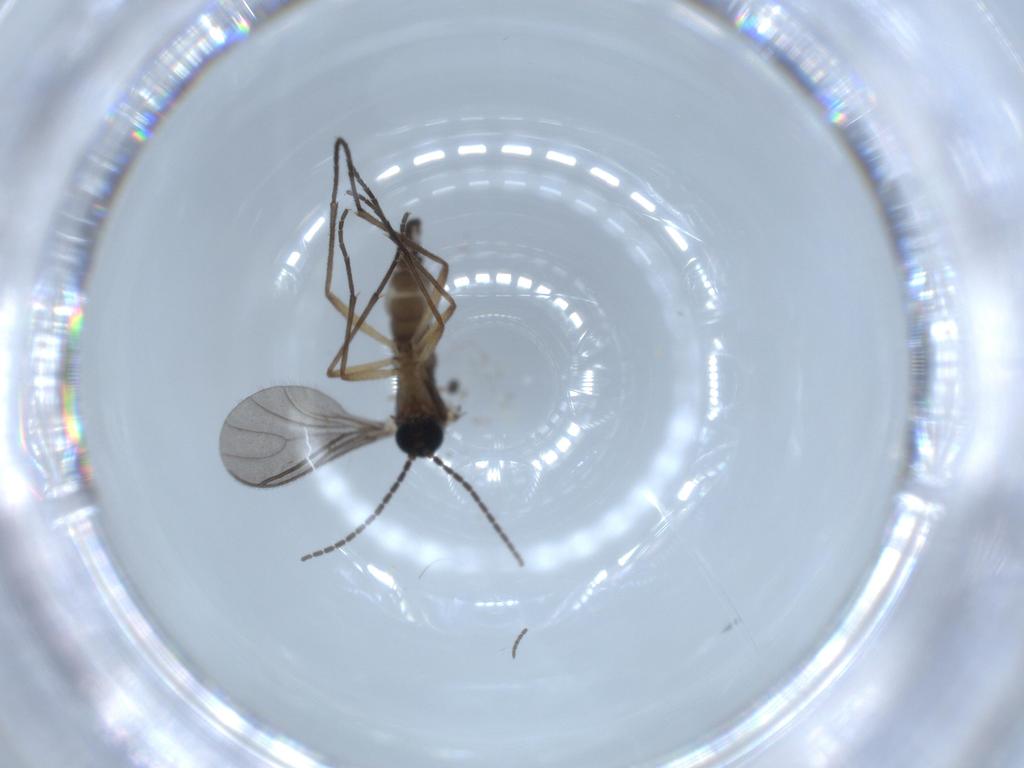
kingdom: Animalia
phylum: Arthropoda
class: Insecta
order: Diptera
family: Sciaridae
